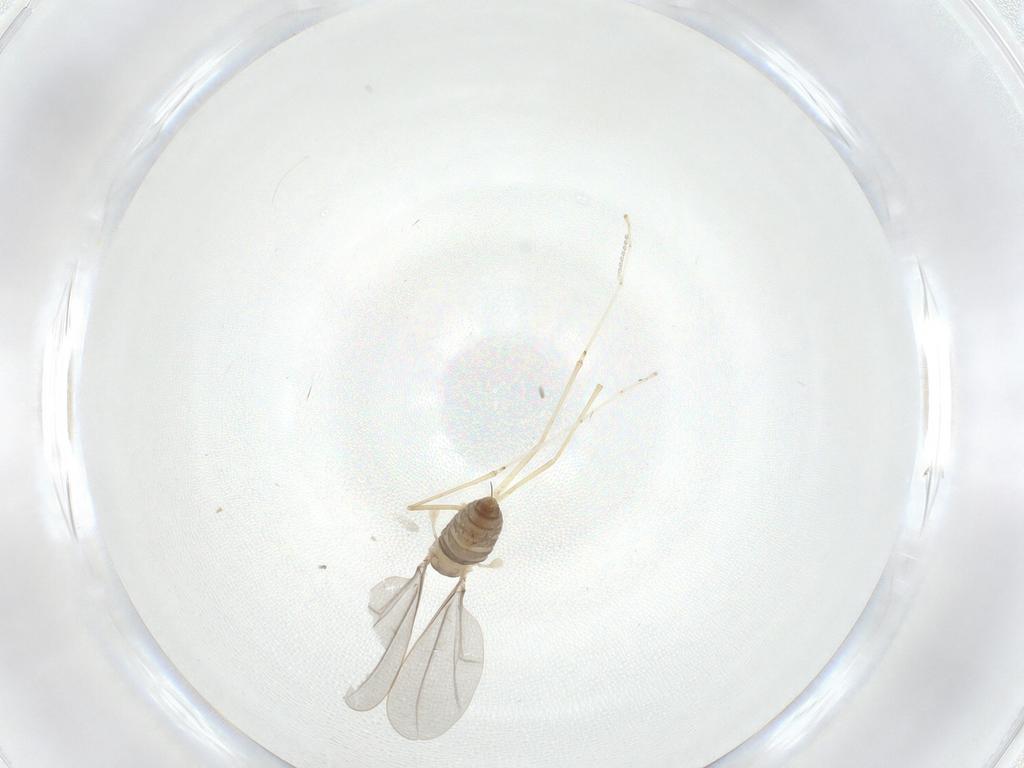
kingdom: Animalia
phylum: Arthropoda
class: Insecta
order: Diptera
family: Cecidomyiidae
